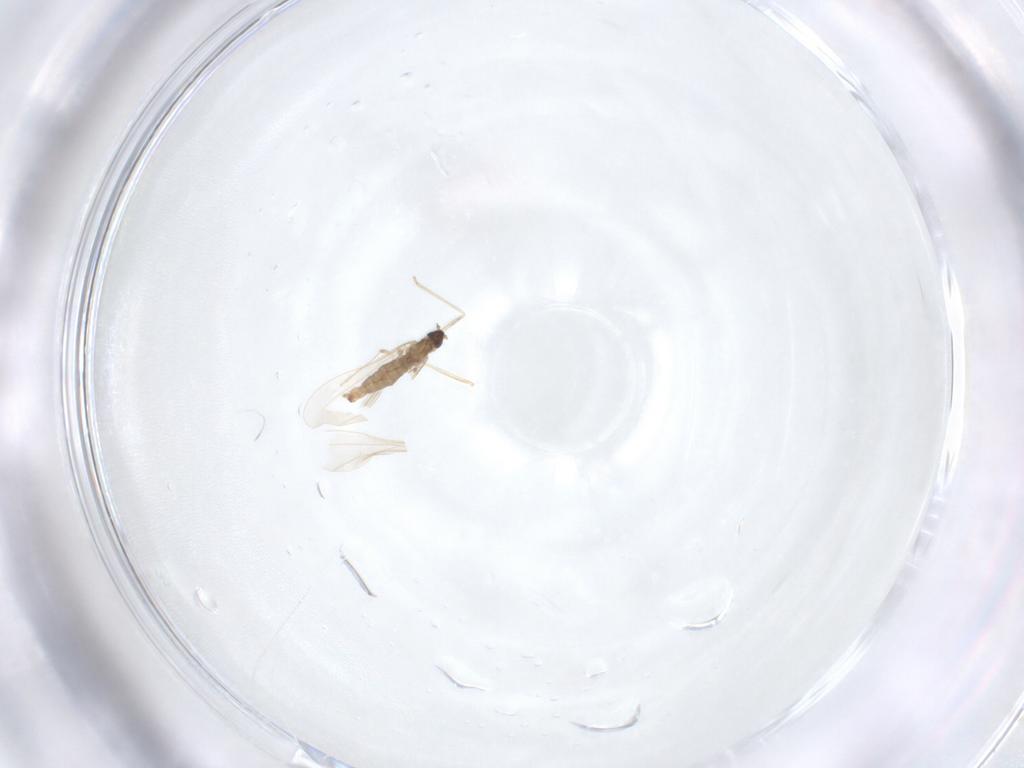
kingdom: Animalia
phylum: Arthropoda
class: Insecta
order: Diptera
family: Cecidomyiidae
